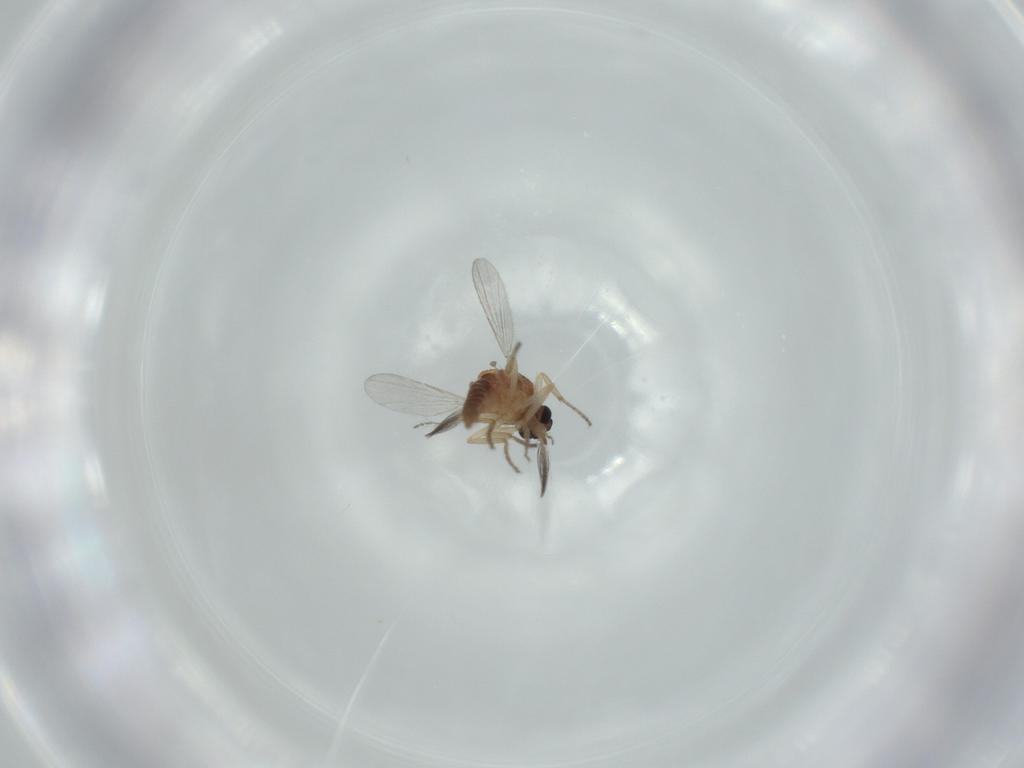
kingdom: Animalia
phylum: Arthropoda
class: Insecta
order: Diptera
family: Ceratopogonidae
